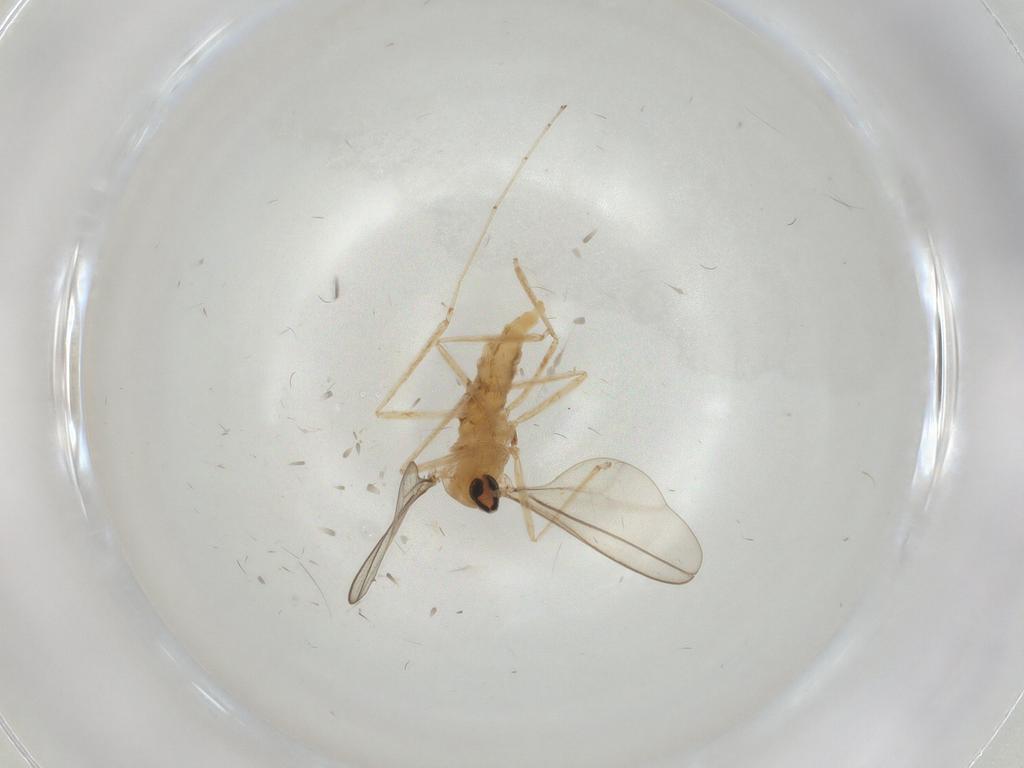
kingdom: Animalia
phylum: Arthropoda
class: Insecta
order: Diptera
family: Cecidomyiidae
